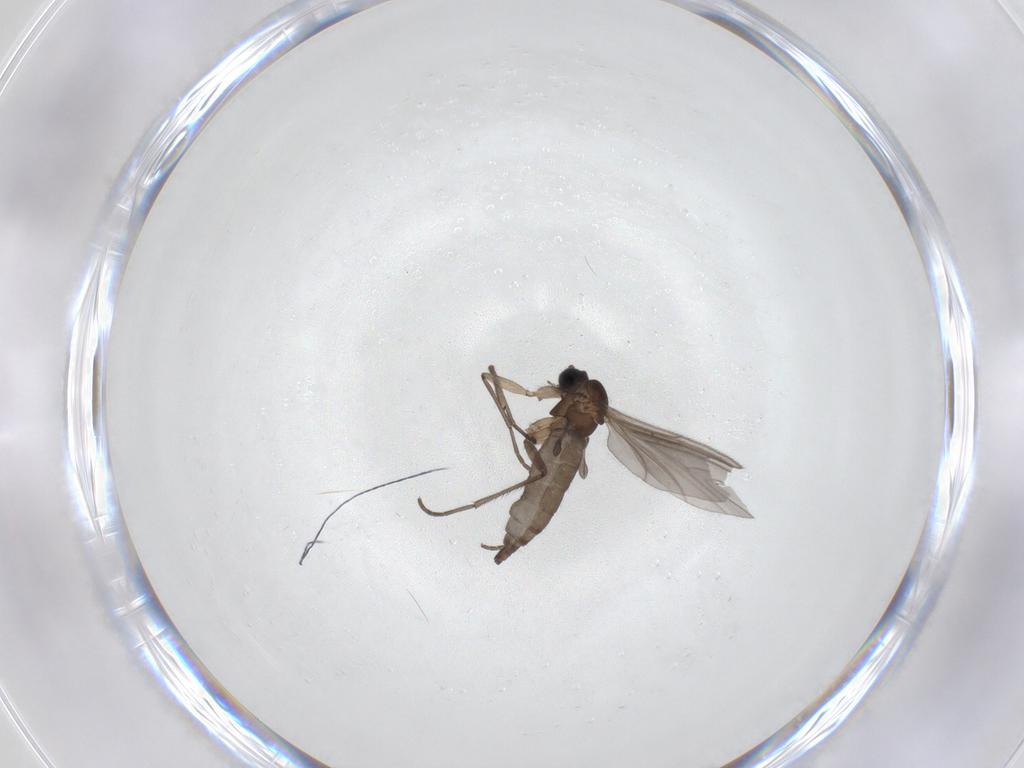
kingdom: Animalia
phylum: Arthropoda
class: Insecta
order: Diptera
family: Sciaridae
